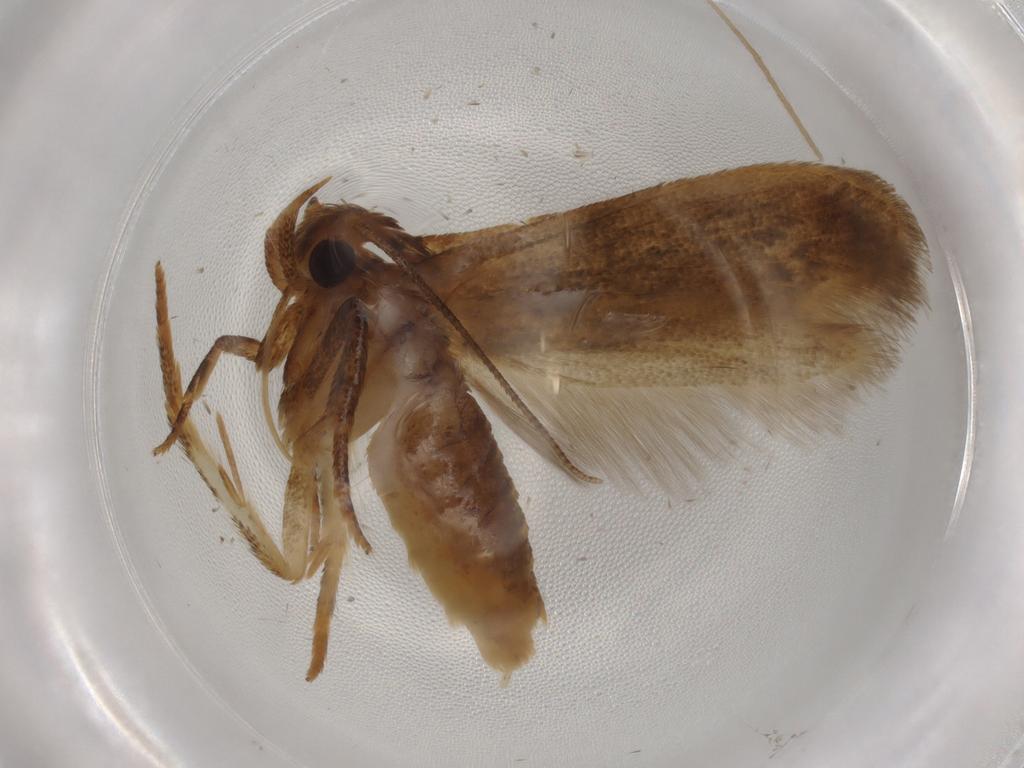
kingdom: Animalia
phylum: Arthropoda
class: Insecta
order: Lepidoptera
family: Blastobasidae
